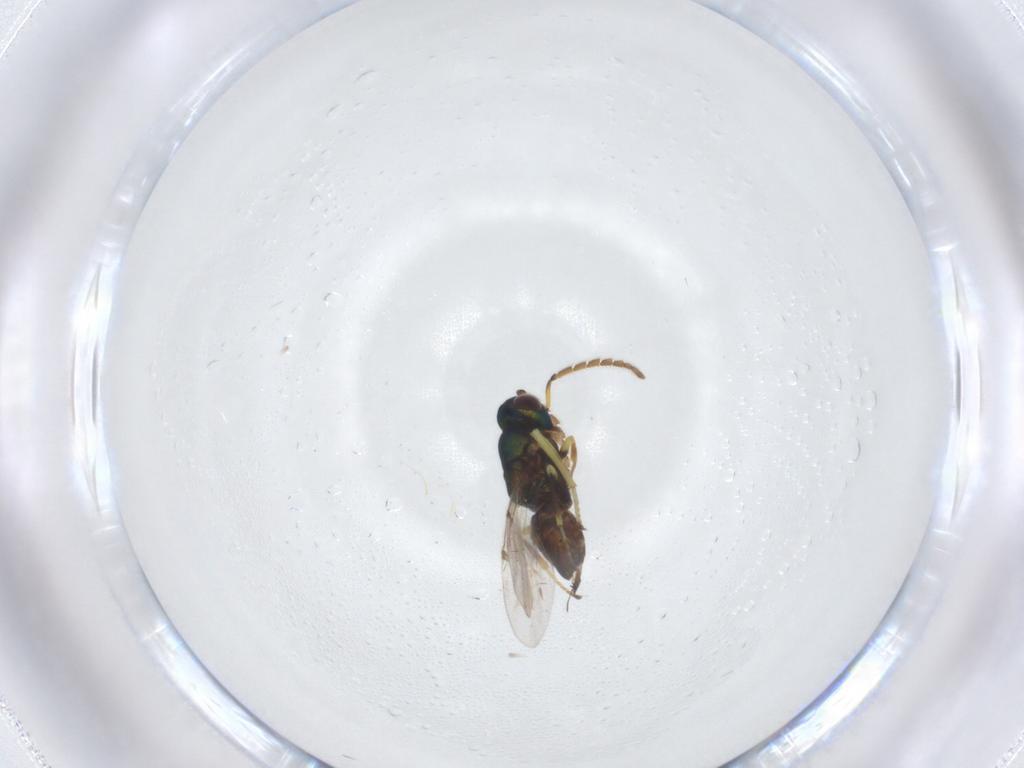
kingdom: Animalia
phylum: Arthropoda
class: Insecta
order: Hymenoptera
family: Encyrtidae
